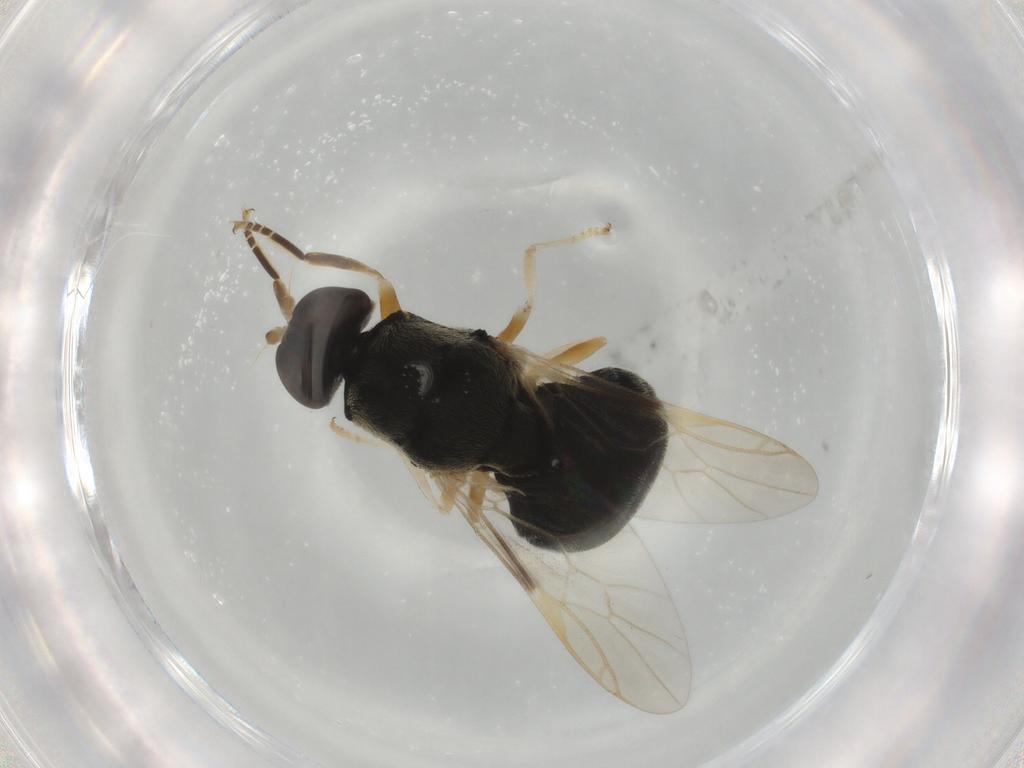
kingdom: Animalia
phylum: Arthropoda
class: Insecta
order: Diptera
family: Stratiomyidae
